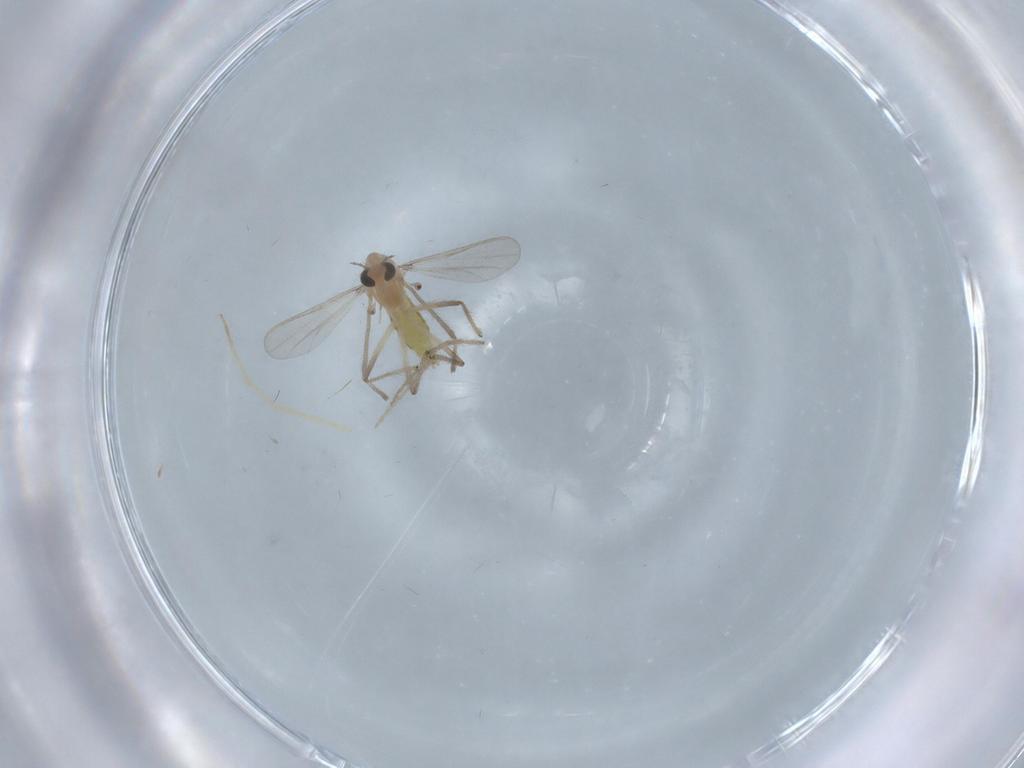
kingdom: Animalia
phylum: Arthropoda
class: Insecta
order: Diptera
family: Chironomidae
